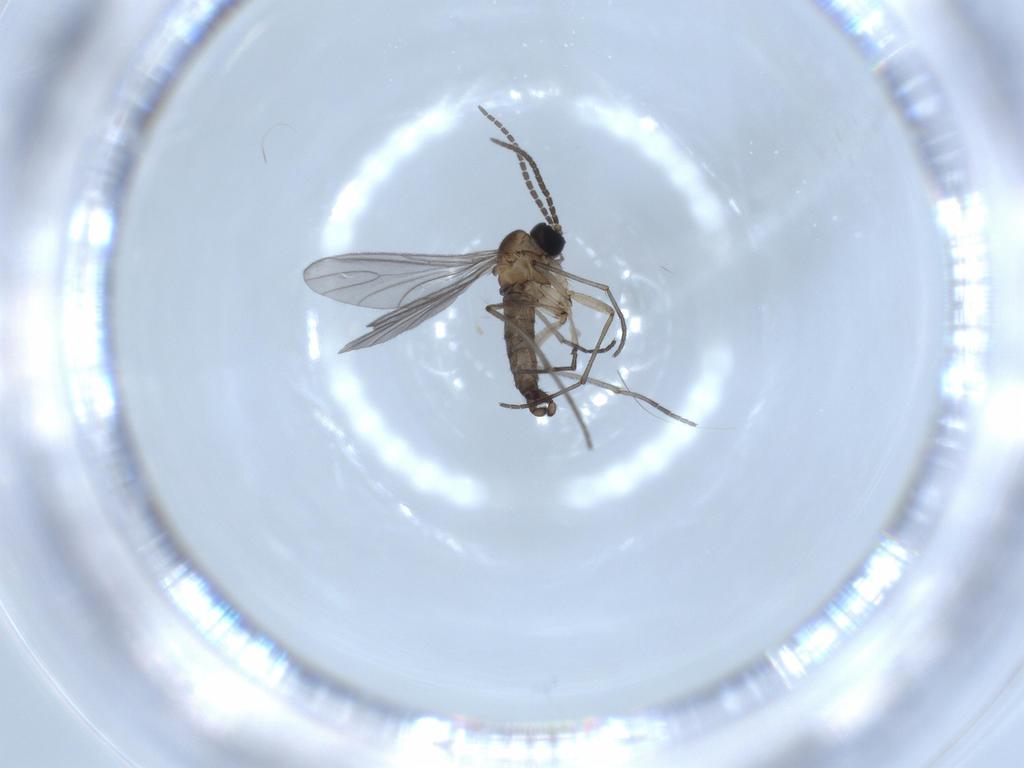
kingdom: Animalia
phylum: Arthropoda
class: Insecta
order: Diptera
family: Sciaridae
